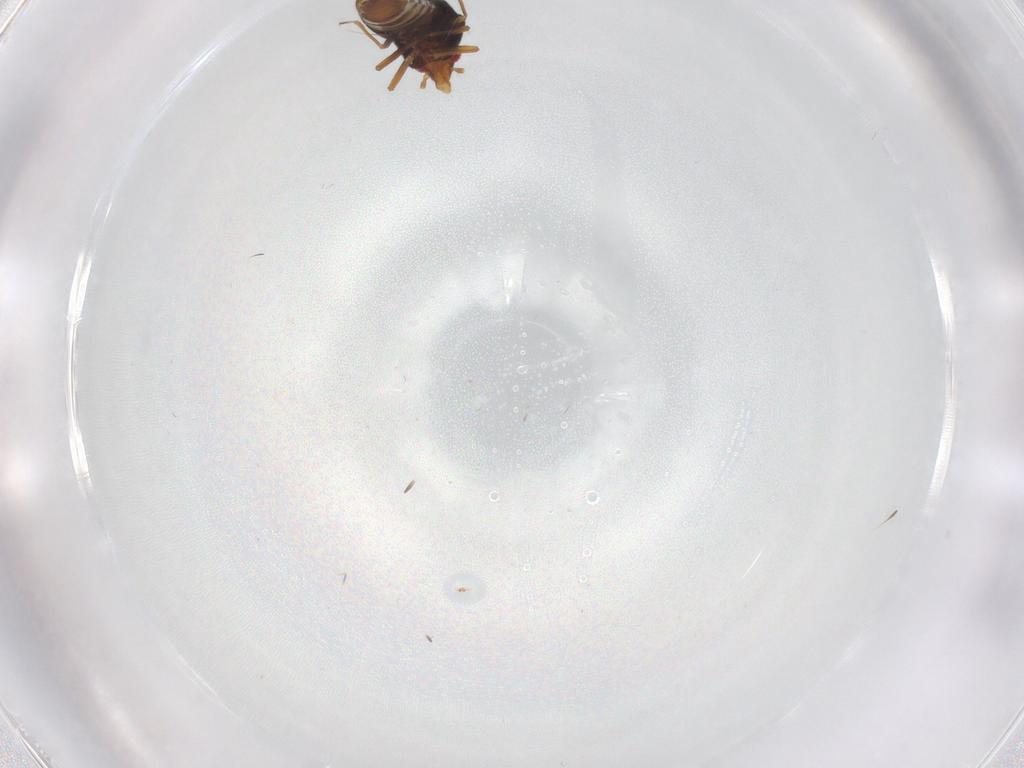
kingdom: Animalia
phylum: Arthropoda
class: Insecta
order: Hemiptera
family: Schizopteridae
